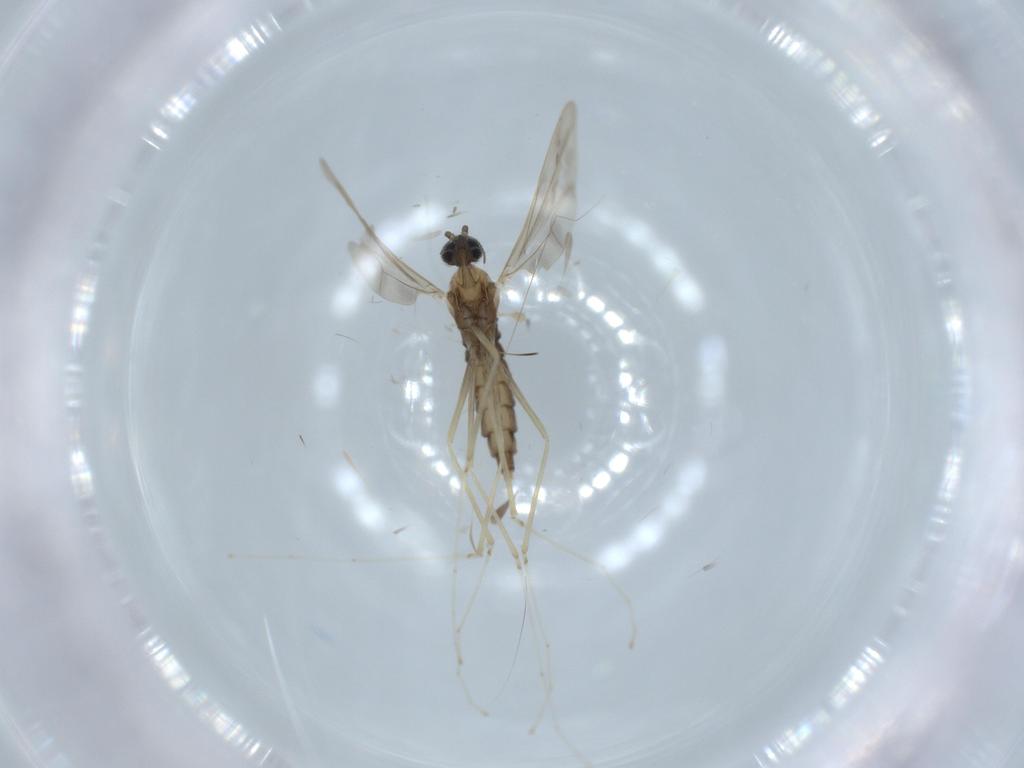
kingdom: Animalia
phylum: Arthropoda
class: Insecta
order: Diptera
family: Cecidomyiidae
